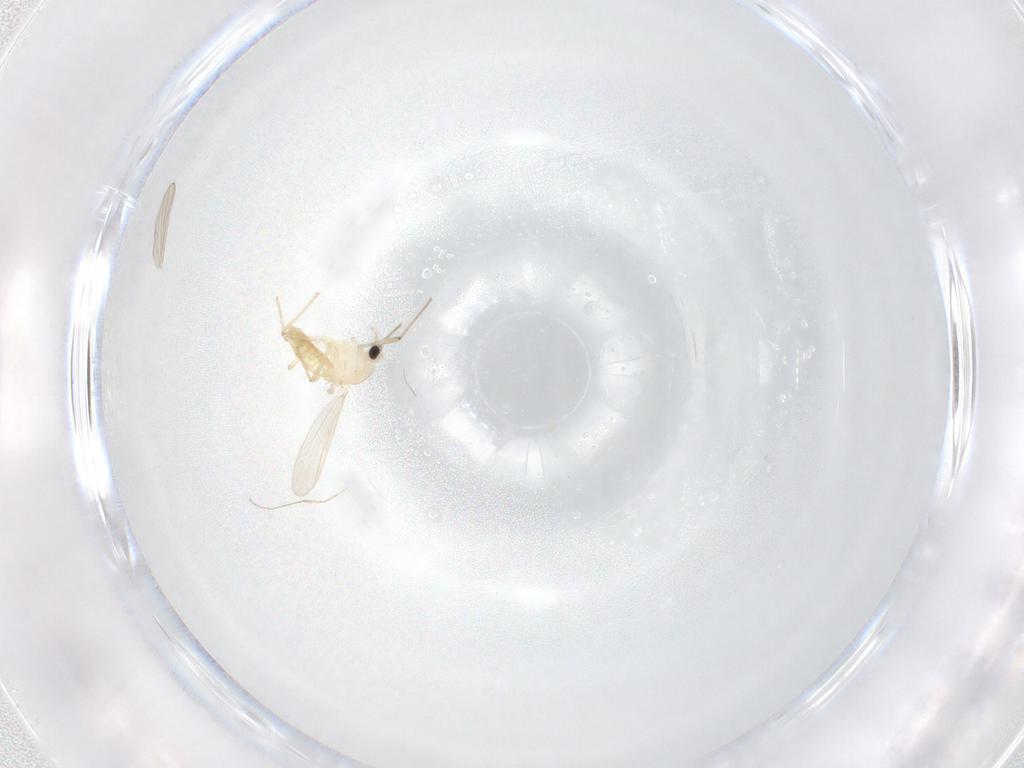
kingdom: Animalia
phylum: Arthropoda
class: Insecta
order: Diptera
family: Chironomidae
